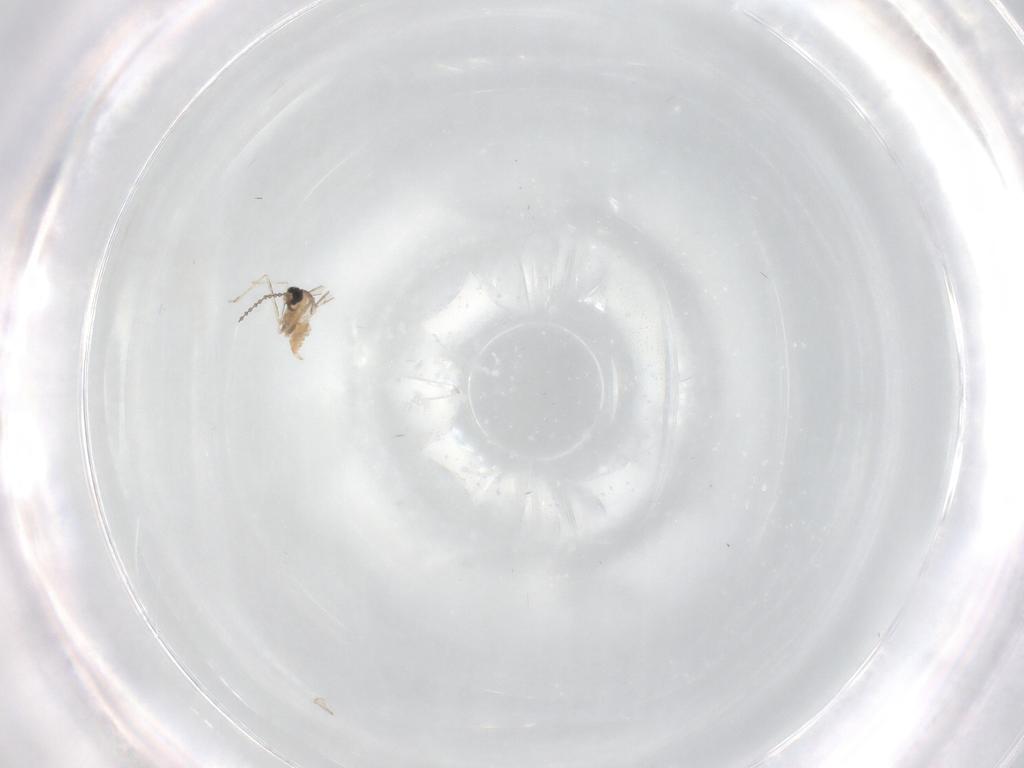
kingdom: Animalia
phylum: Arthropoda
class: Insecta
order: Diptera
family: Cecidomyiidae
